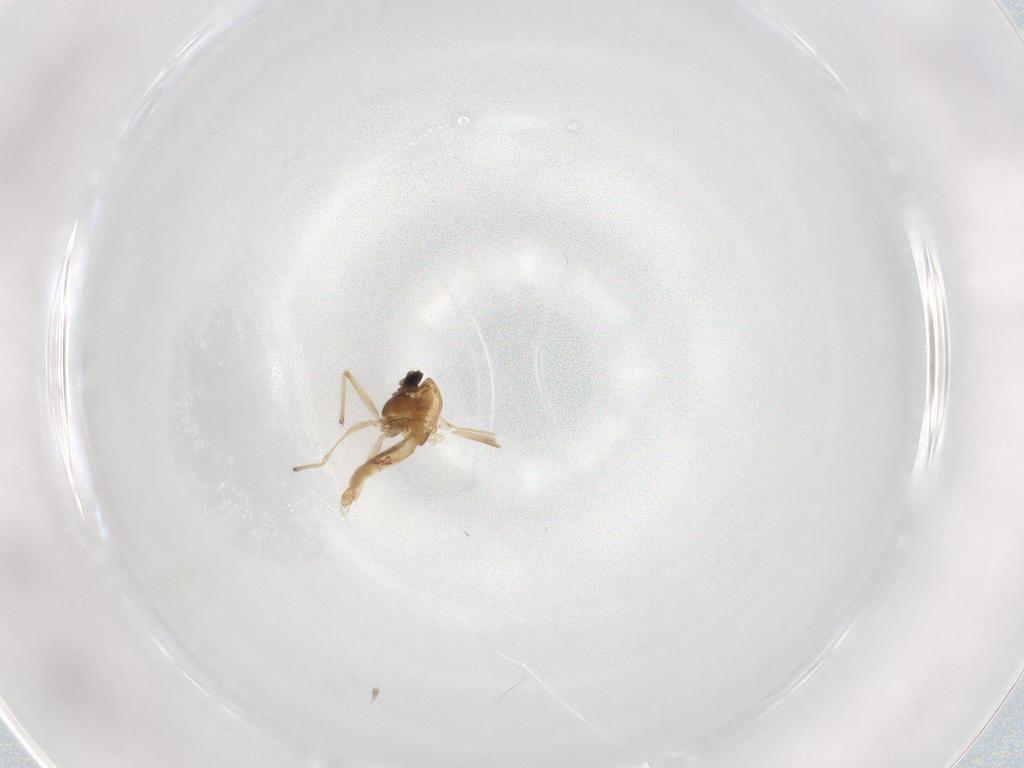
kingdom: Animalia
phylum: Arthropoda
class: Insecta
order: Diptera
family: Chironomidae
